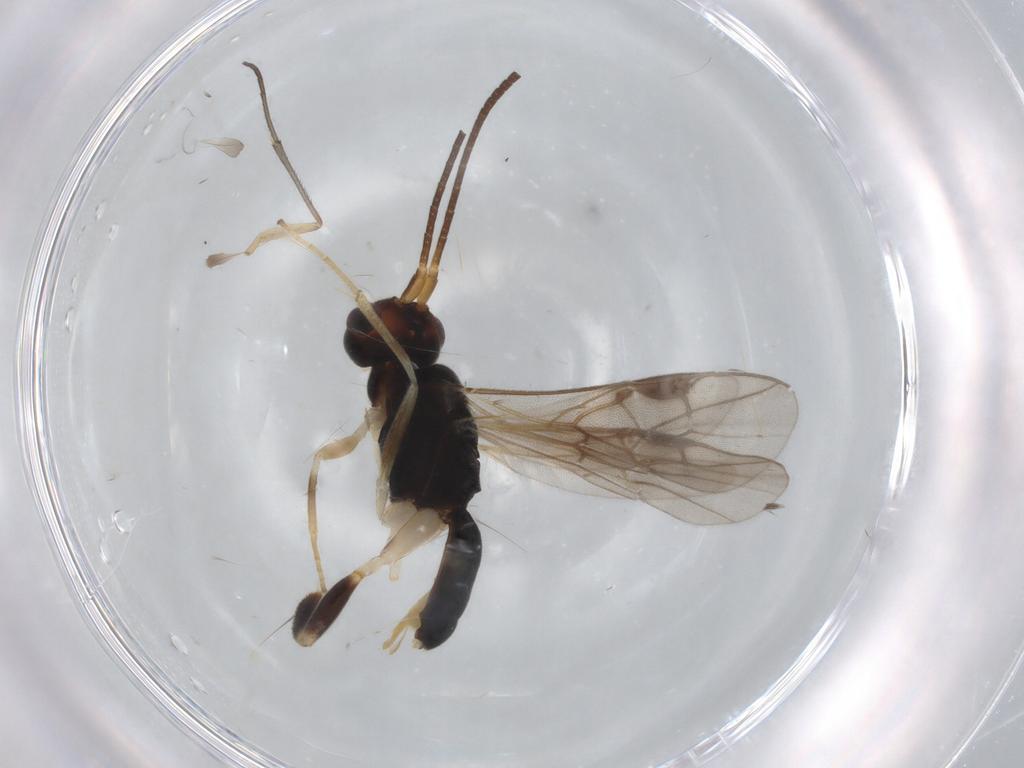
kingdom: Animalia
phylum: Arthropoda
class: Insecta
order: Hymenoptera
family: Braconidae
